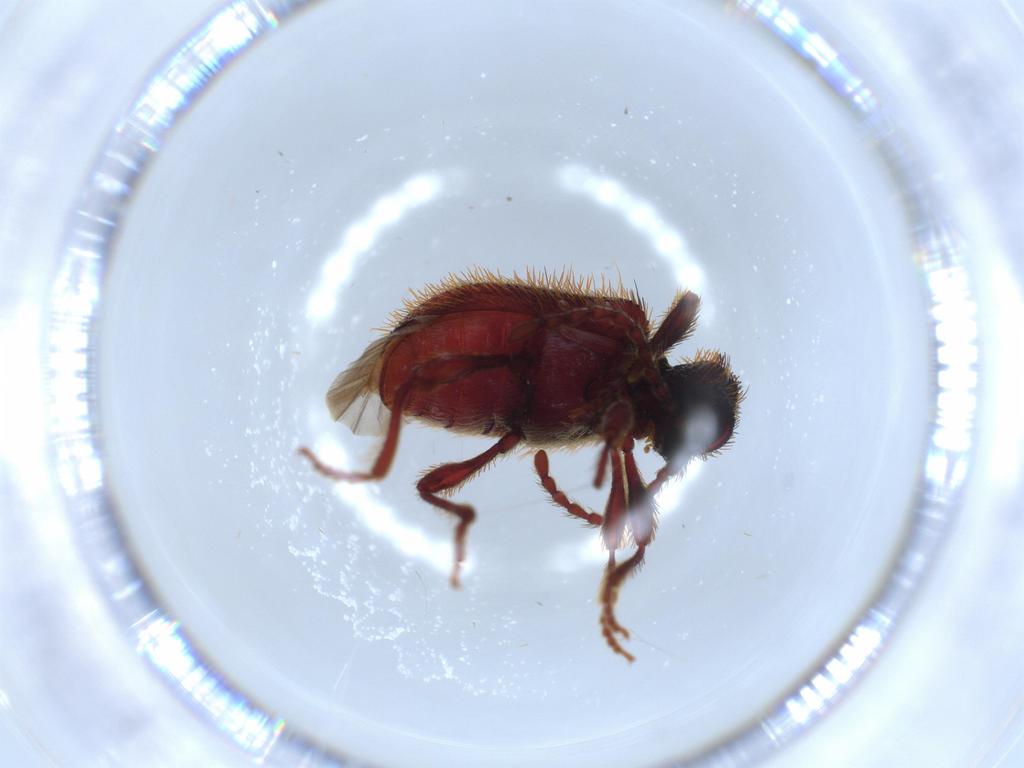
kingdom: Animalia
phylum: Arthropoda
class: Insecta
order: Coleoptera
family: Ptinidae
